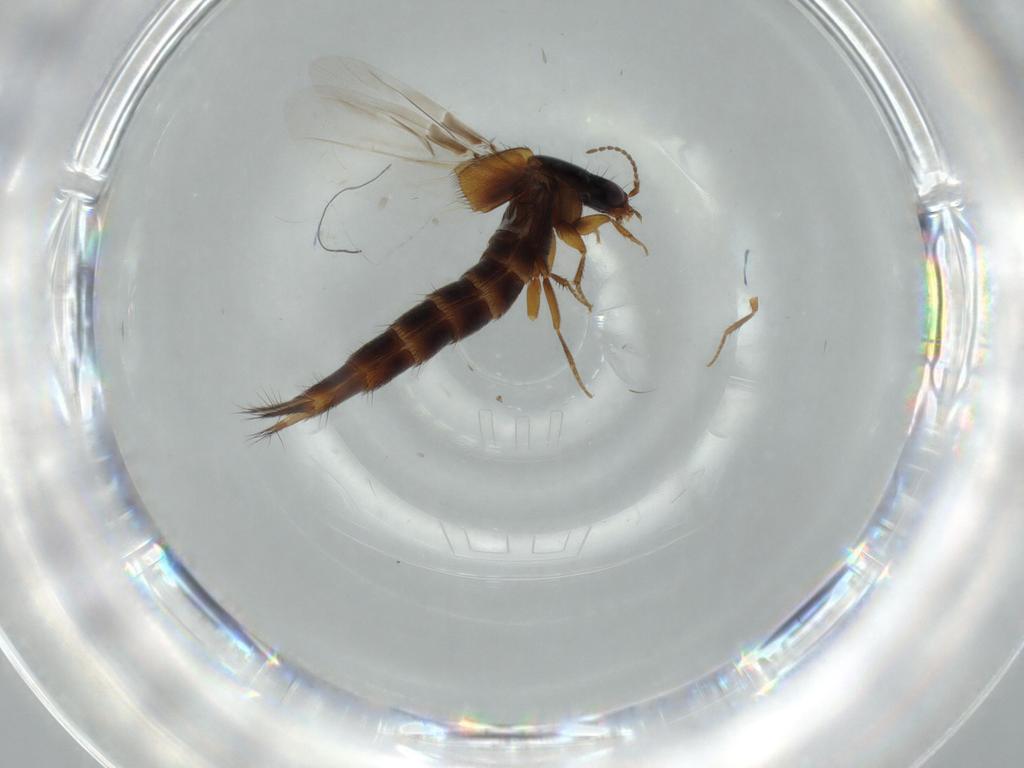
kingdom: Animalia
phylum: Arthropoda
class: Insecta
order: Coleoptera
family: Staphylinidae
